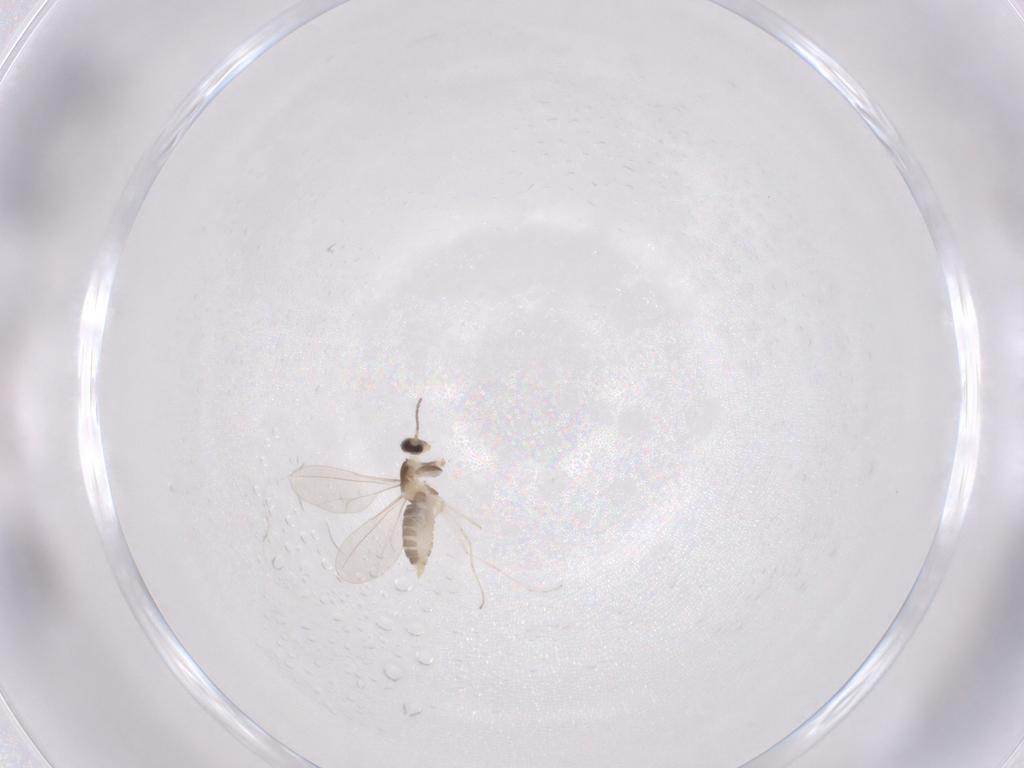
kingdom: Animalia
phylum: Arthropoda
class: Insecta
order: Diptera
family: Cecidomyiidae
